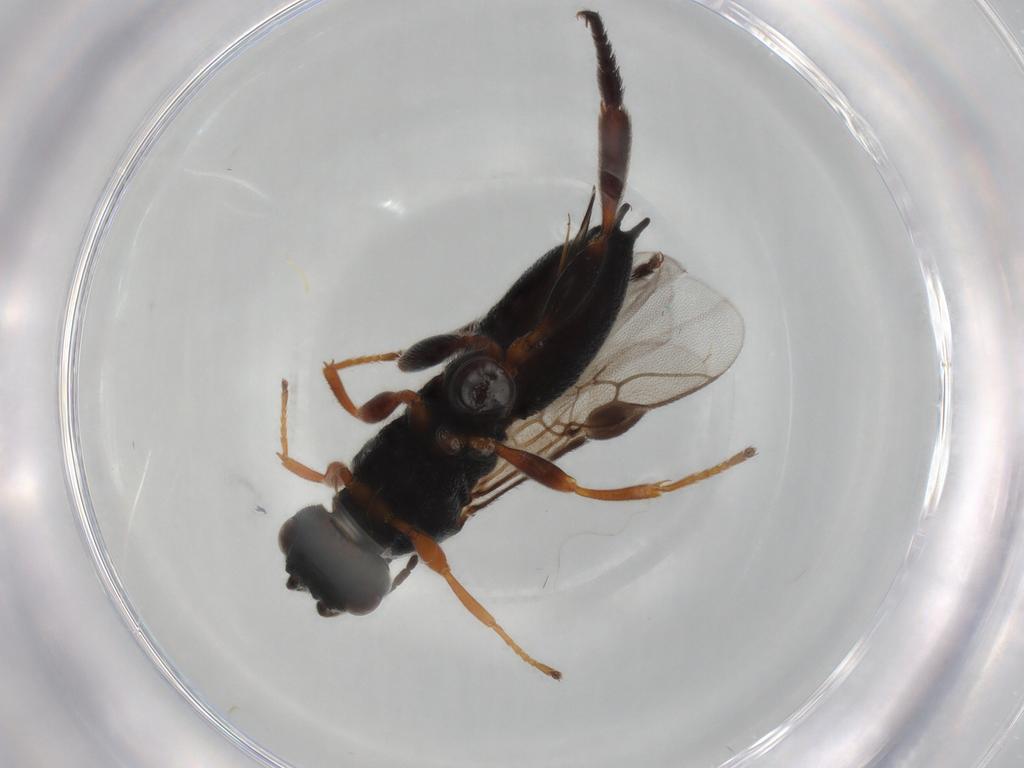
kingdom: Animalia
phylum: Arthropoda
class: Insecta
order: Hymenoptera
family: Braconidae
